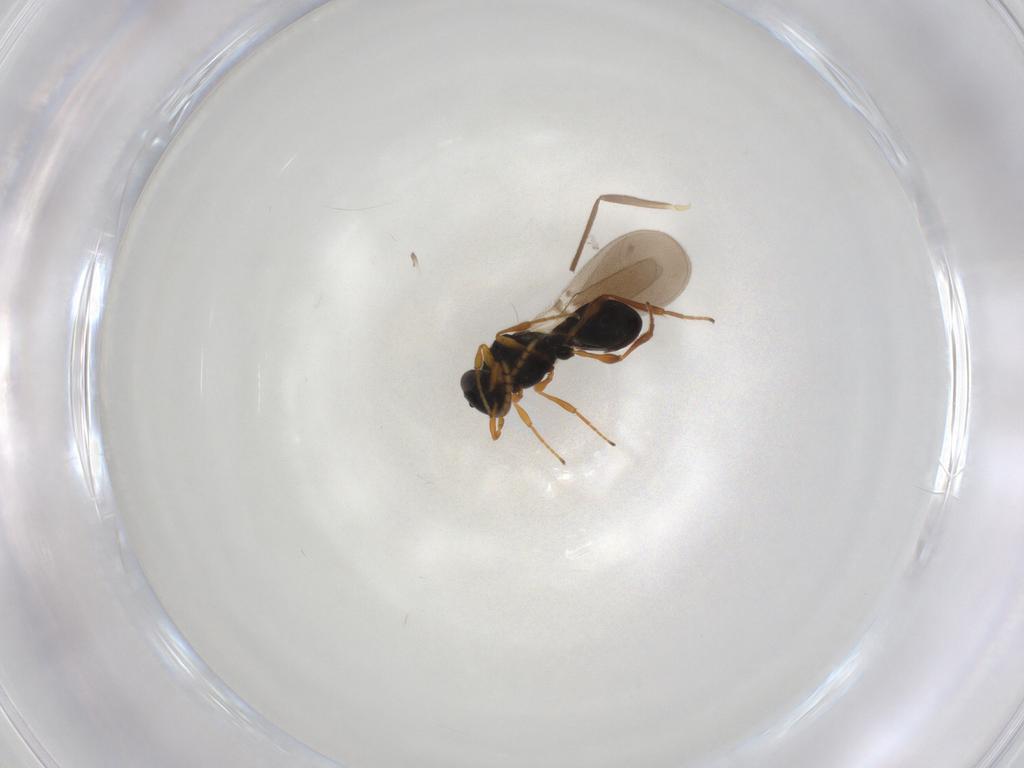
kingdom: Animalia
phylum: Arthropoda
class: Insecta
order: Hymenoptera
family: Platygastridae
